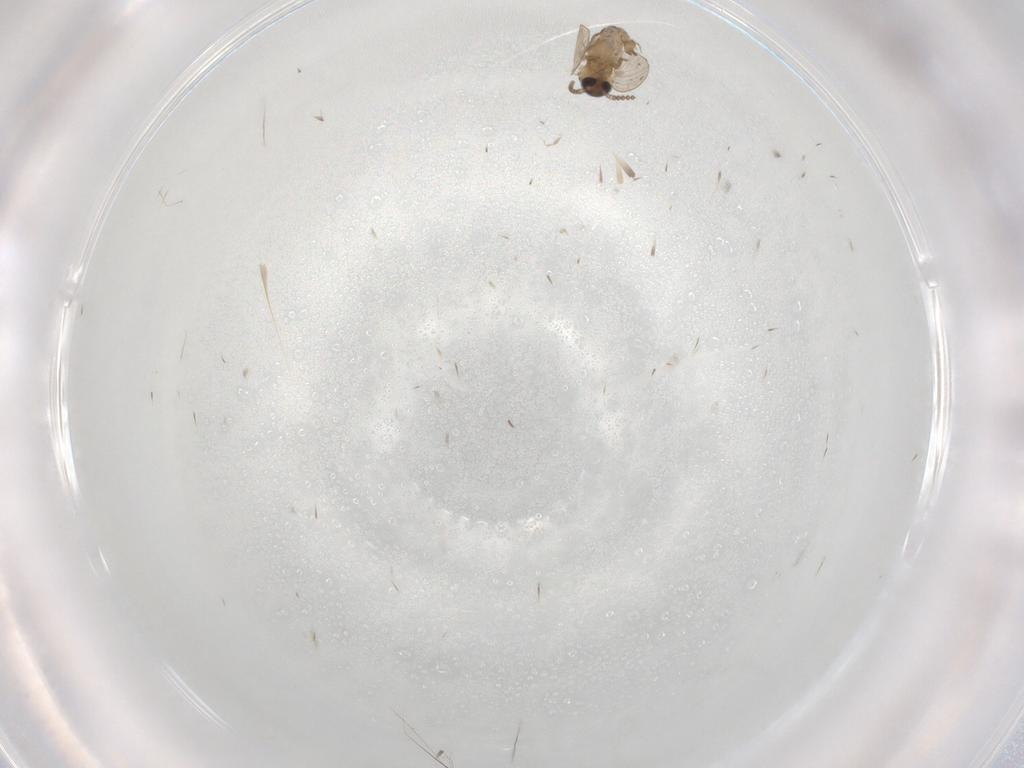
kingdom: Animalia
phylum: Arthropoda
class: Insecta
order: Diptera
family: Psychodidae
